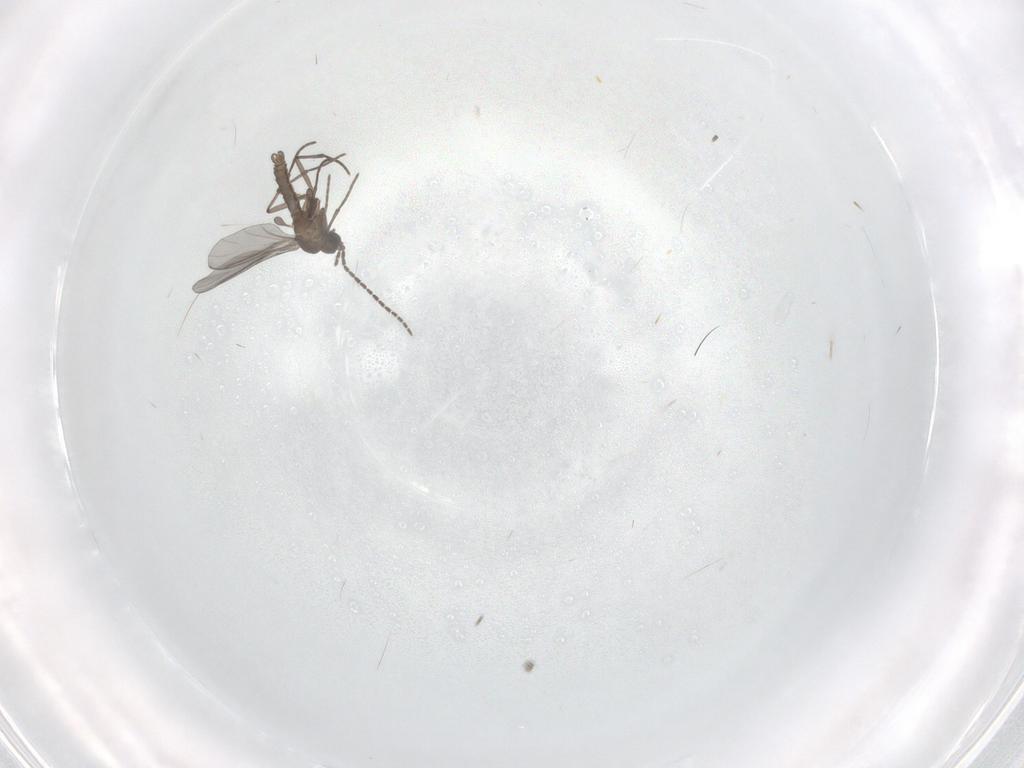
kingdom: Animalia
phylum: Arthropoda
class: Insecta
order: Diptera
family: Sciaridae
